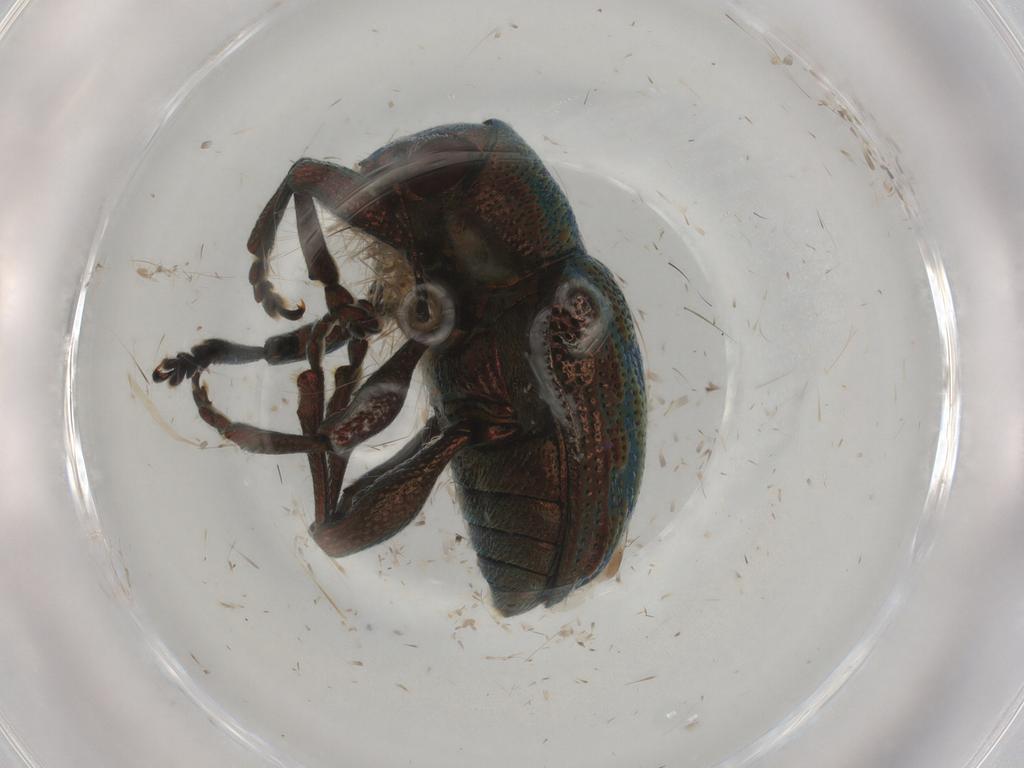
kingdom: Animalia
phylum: Arthropoda
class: Insecta
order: Coleoptera
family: Chrysomelidae
